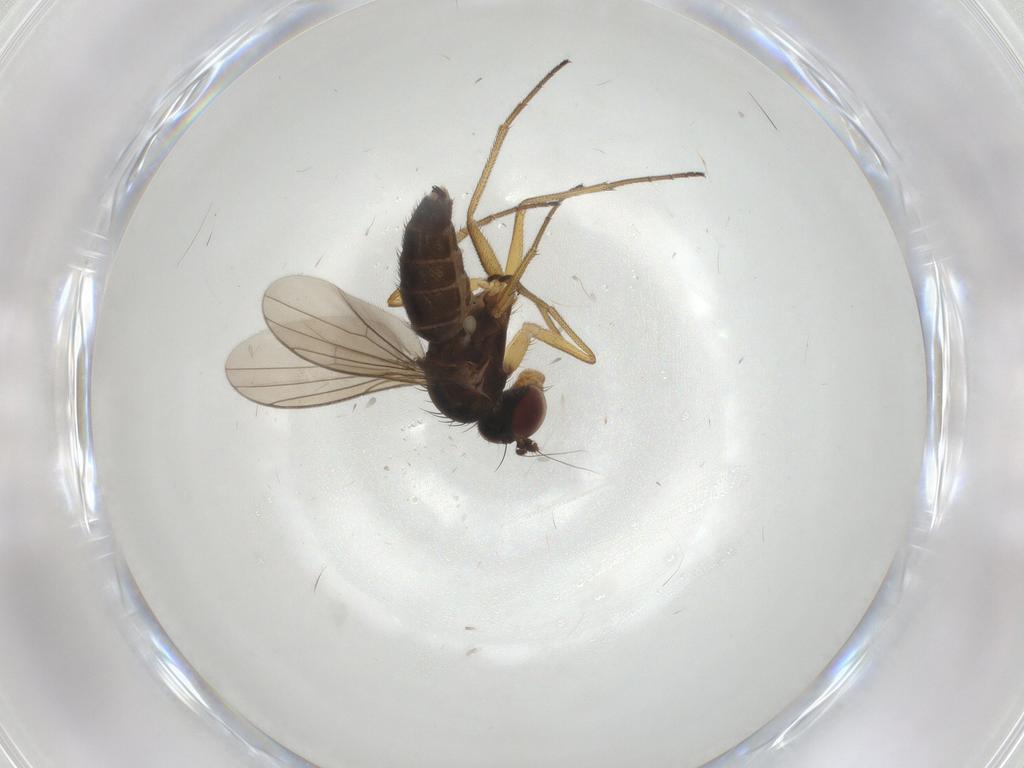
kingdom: Animalia
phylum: Arthropoda
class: Insecta
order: Diptera
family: Dolichopodidae
